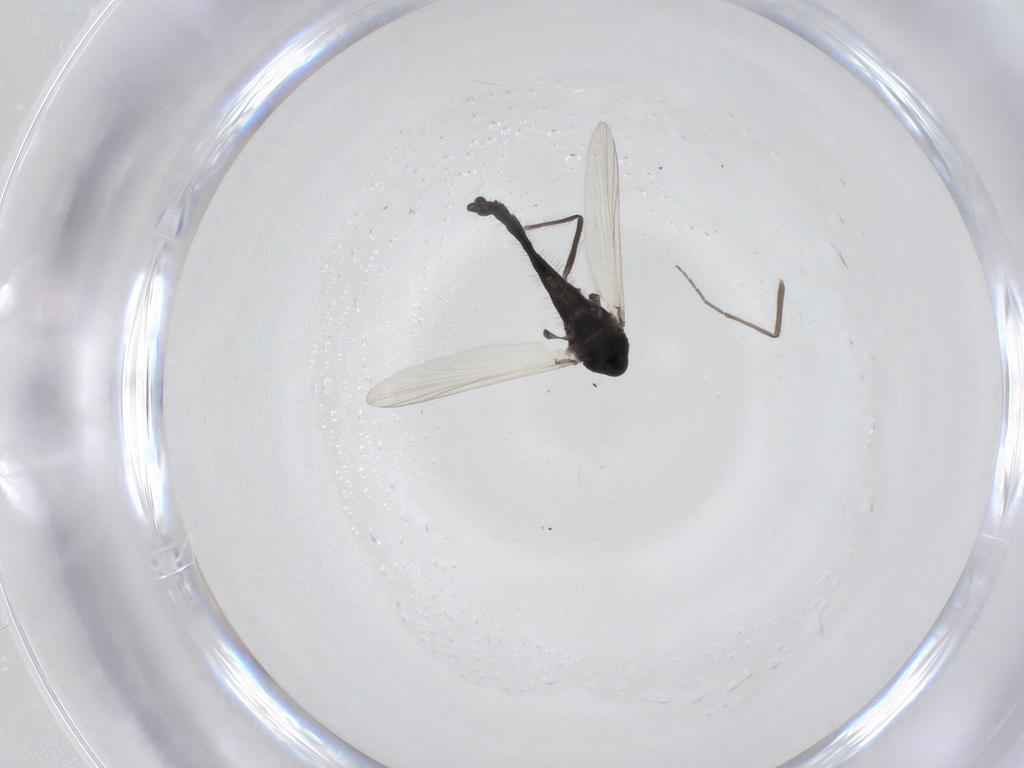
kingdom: Animalia
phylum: Arthropoda
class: Insecta
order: Diptera
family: Chironomidae
